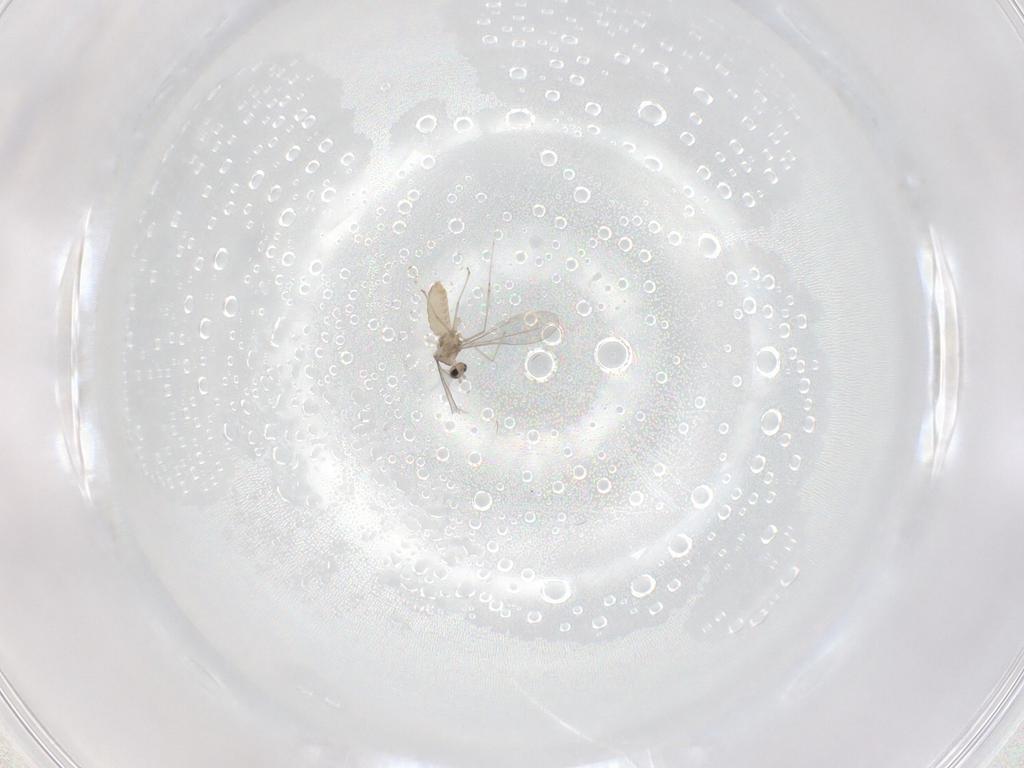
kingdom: Animalia
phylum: Arthropoda
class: Insecta
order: Diptera
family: Cecidomyiidae
